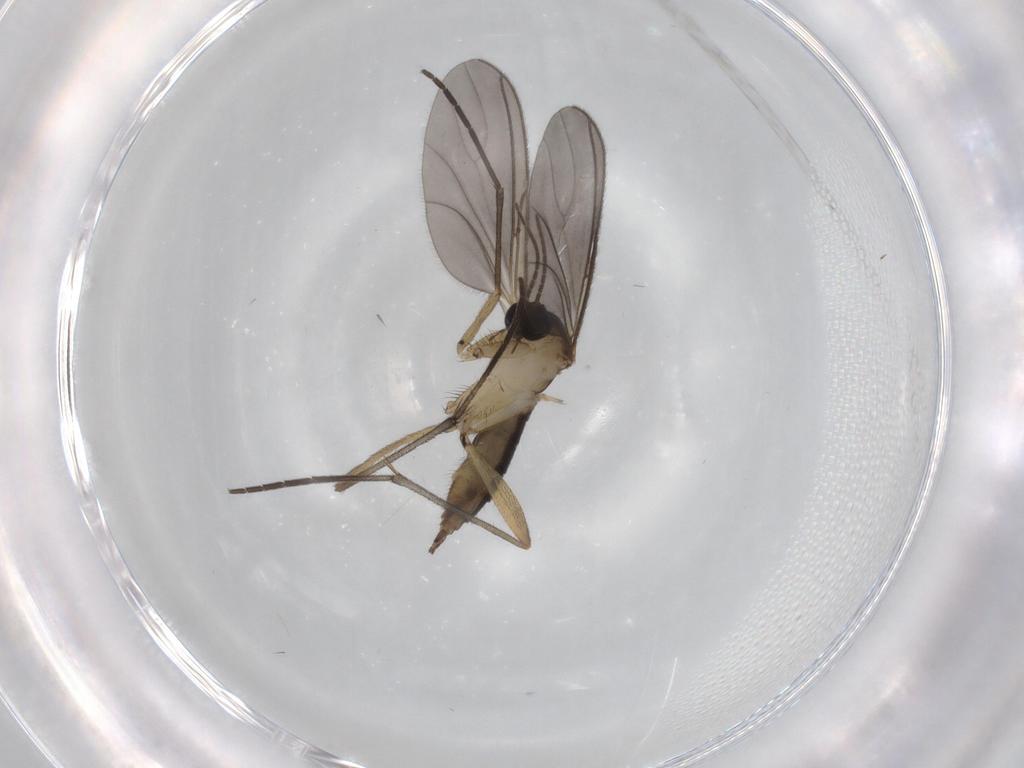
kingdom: Animalia
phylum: Arthropoda
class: Insecta
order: Diptera
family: Sciaridae
